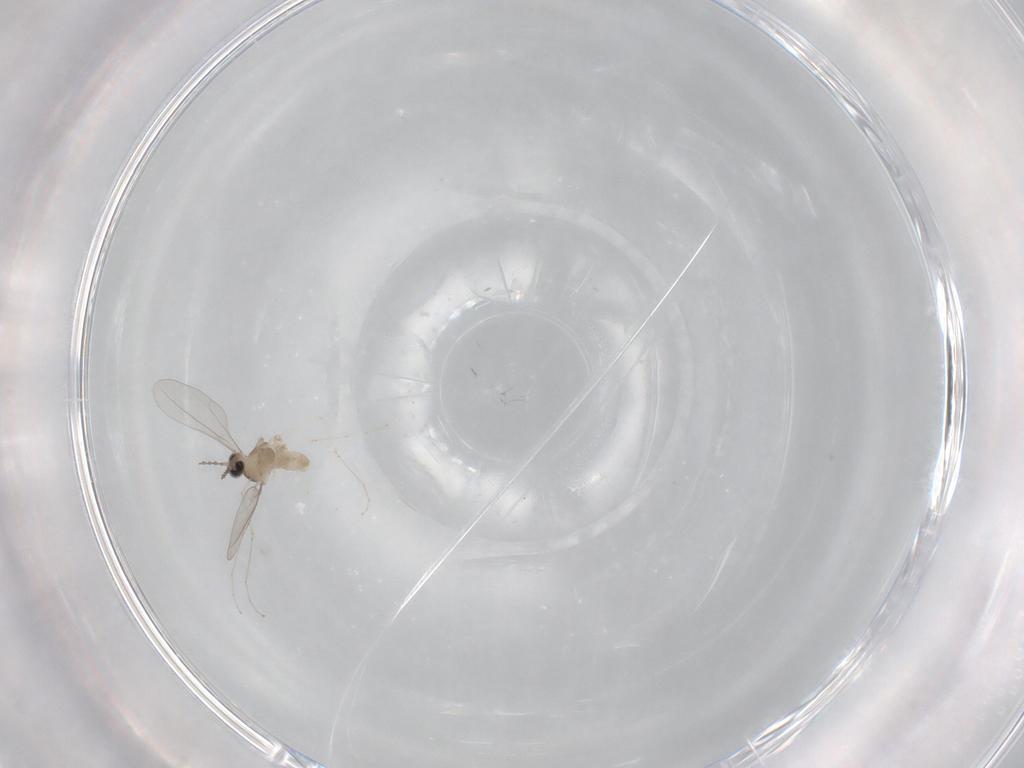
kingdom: Animalia
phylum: Arthropoda
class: Insecta
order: Diptera
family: Cecidomyiidae
